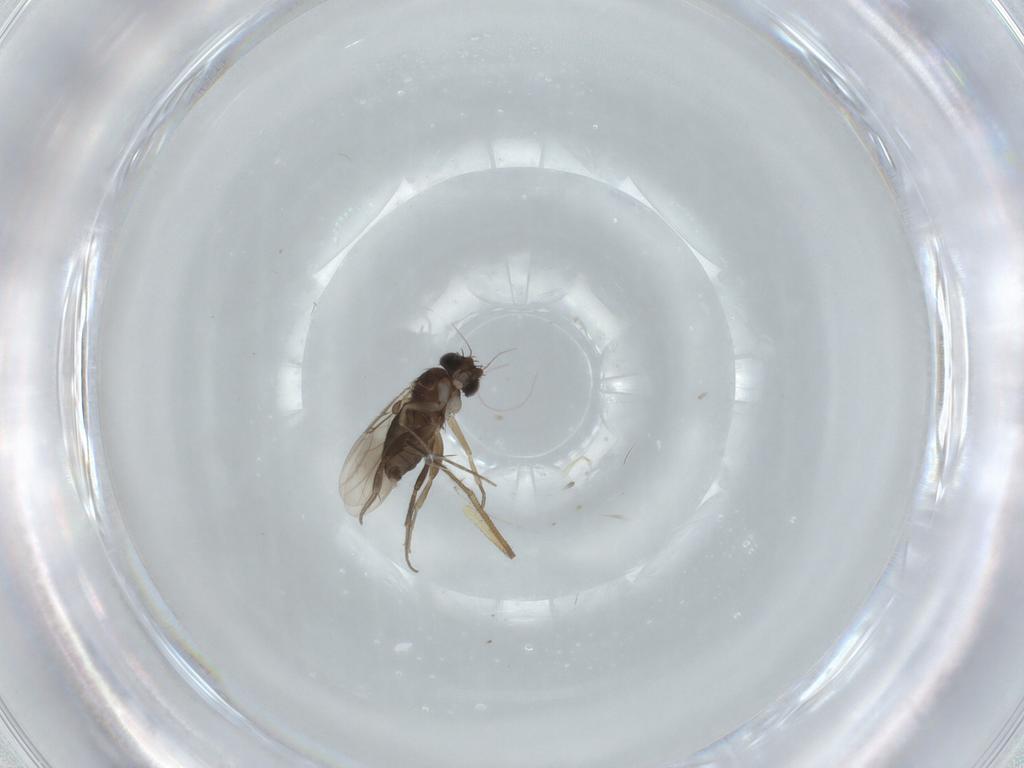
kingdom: Animalia
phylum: Arthropoda
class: Insecta
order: Diptera
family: Phoridae
